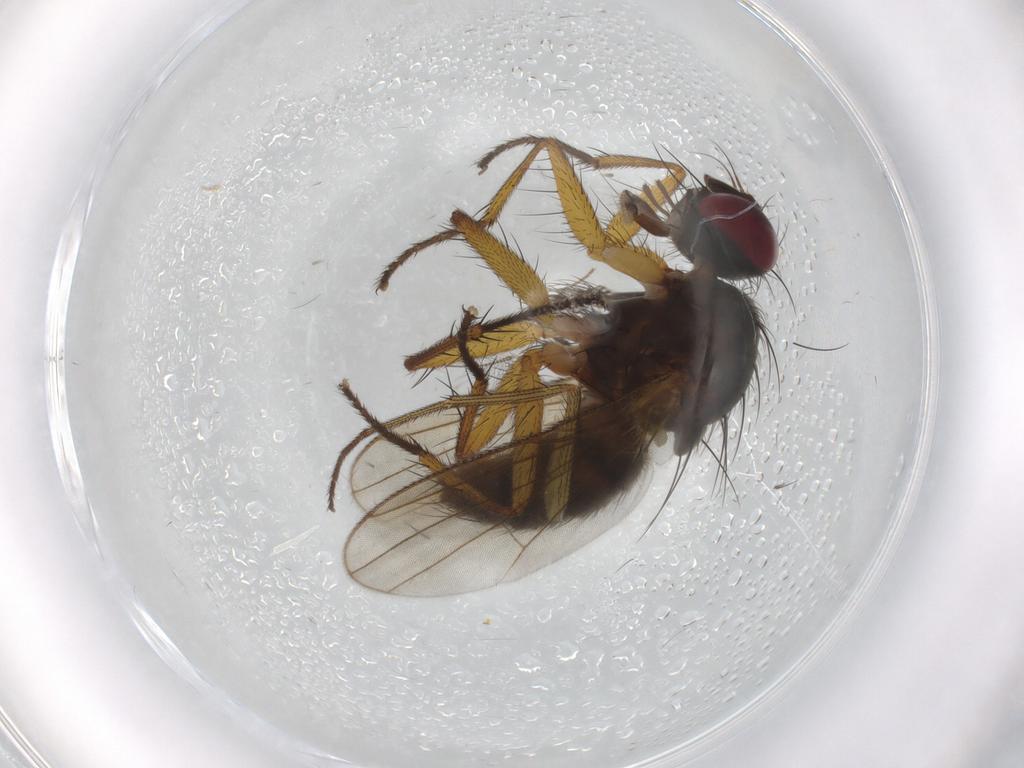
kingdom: Animalia
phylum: Arthropoda
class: Insecta
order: Diptera
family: Muscidae
